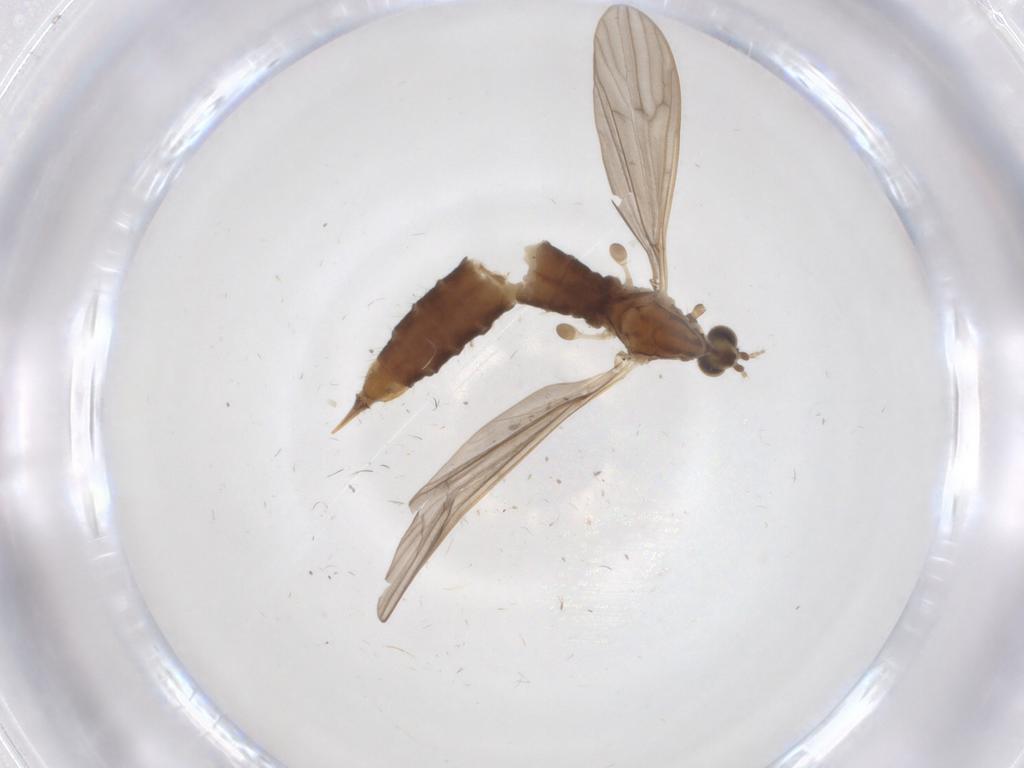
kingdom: Animalia
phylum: Arthropoda
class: Insecta
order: Diptera
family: Limoniidae
